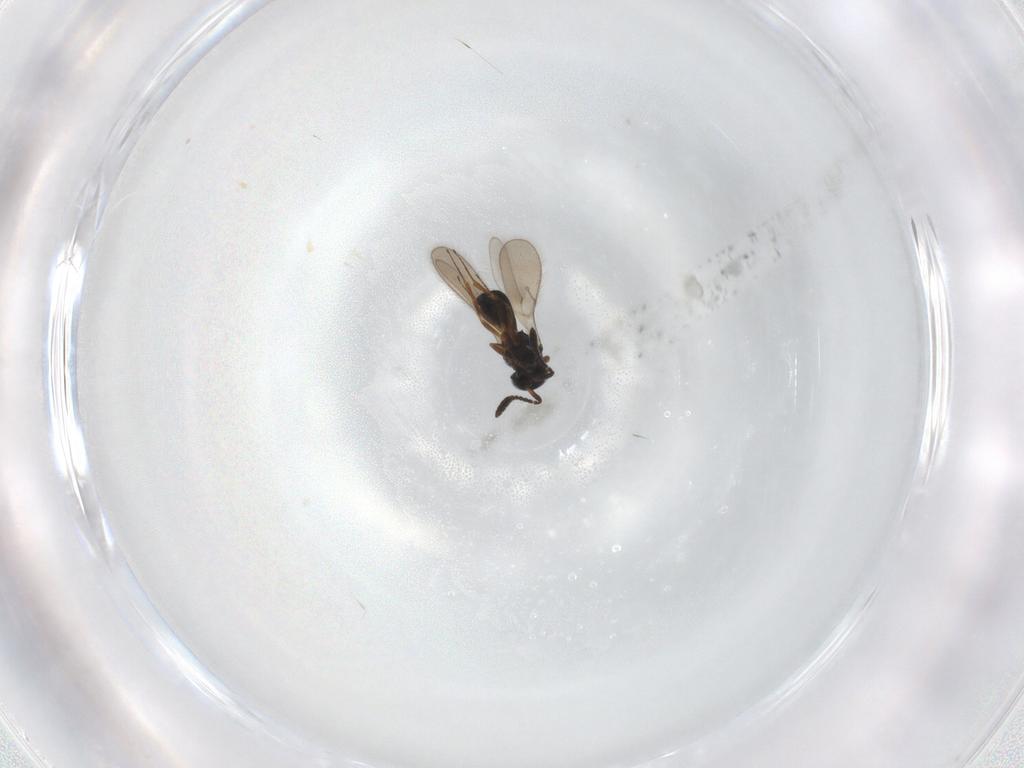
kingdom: Animalia
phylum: Arthropoda
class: Insecta
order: Hymenoptera
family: Scelionidae
